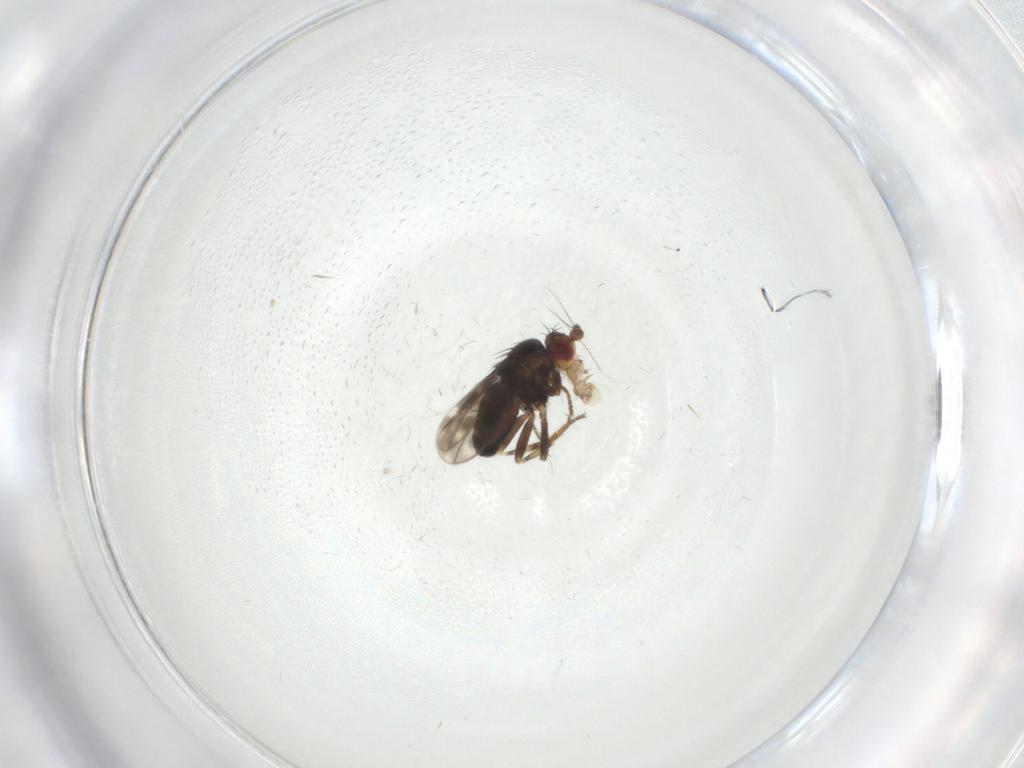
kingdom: Animalia
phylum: Arthropoda
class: Insecta
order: Diptera
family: Sphaeroceridae
